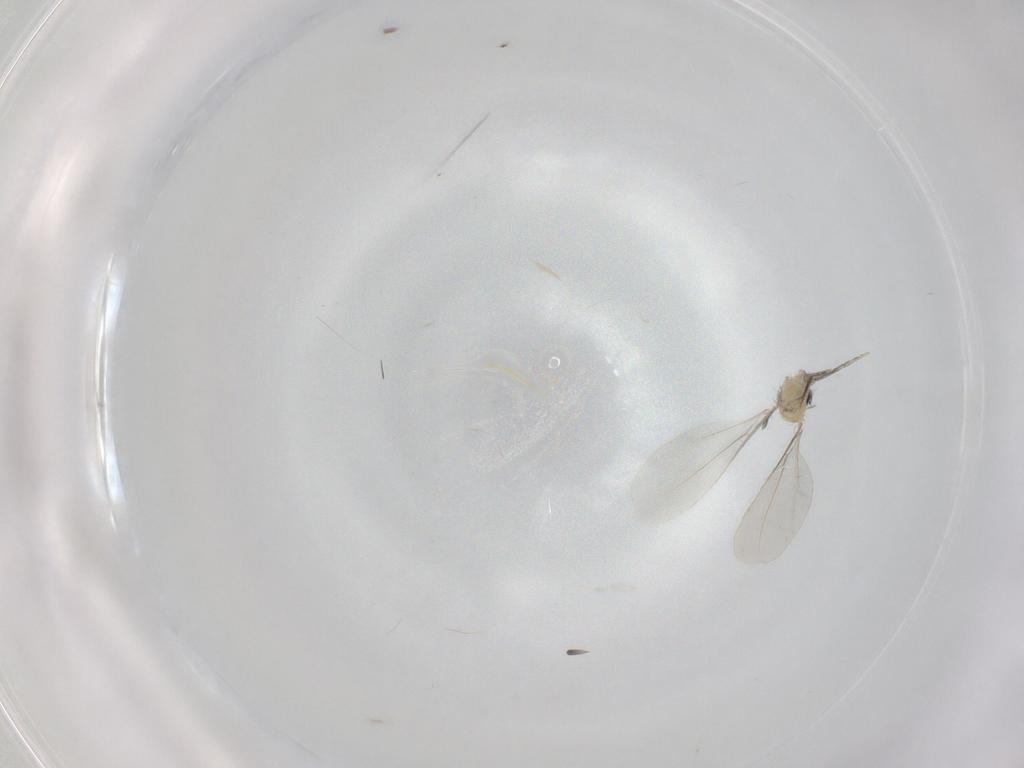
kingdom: Animalia
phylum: Arthropoda
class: Insecta
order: Diptera
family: Cecidomyiidae
